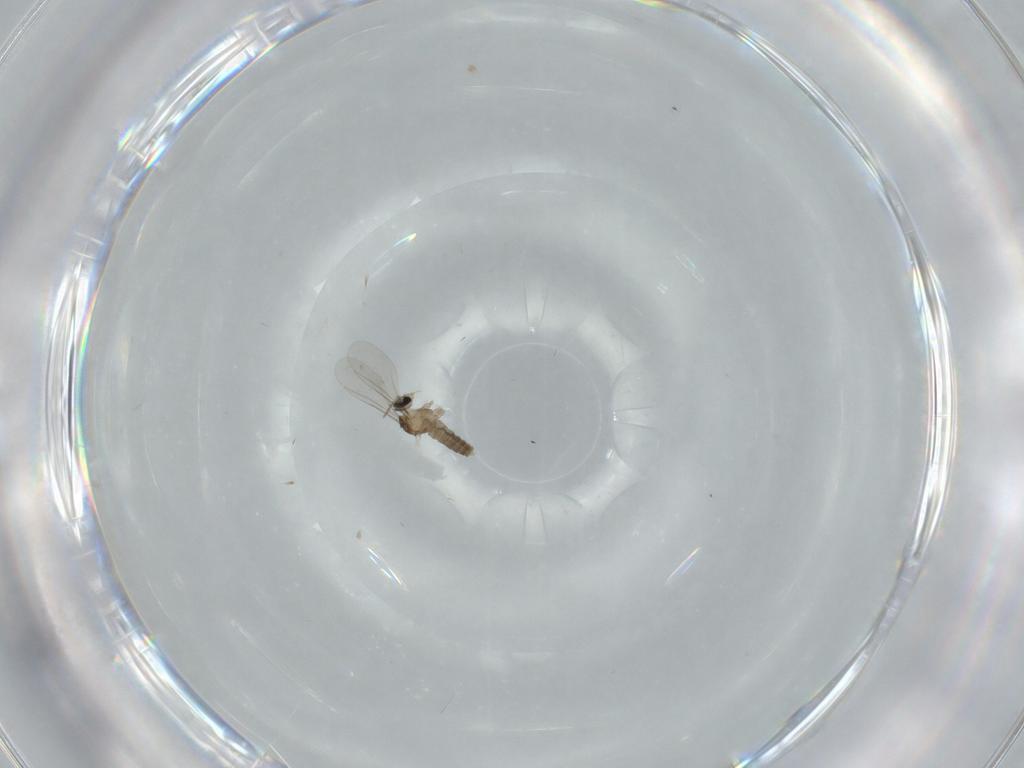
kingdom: Animalia
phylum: Arthropoda
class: Insecta
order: Diptera
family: Cecidomyiidae
